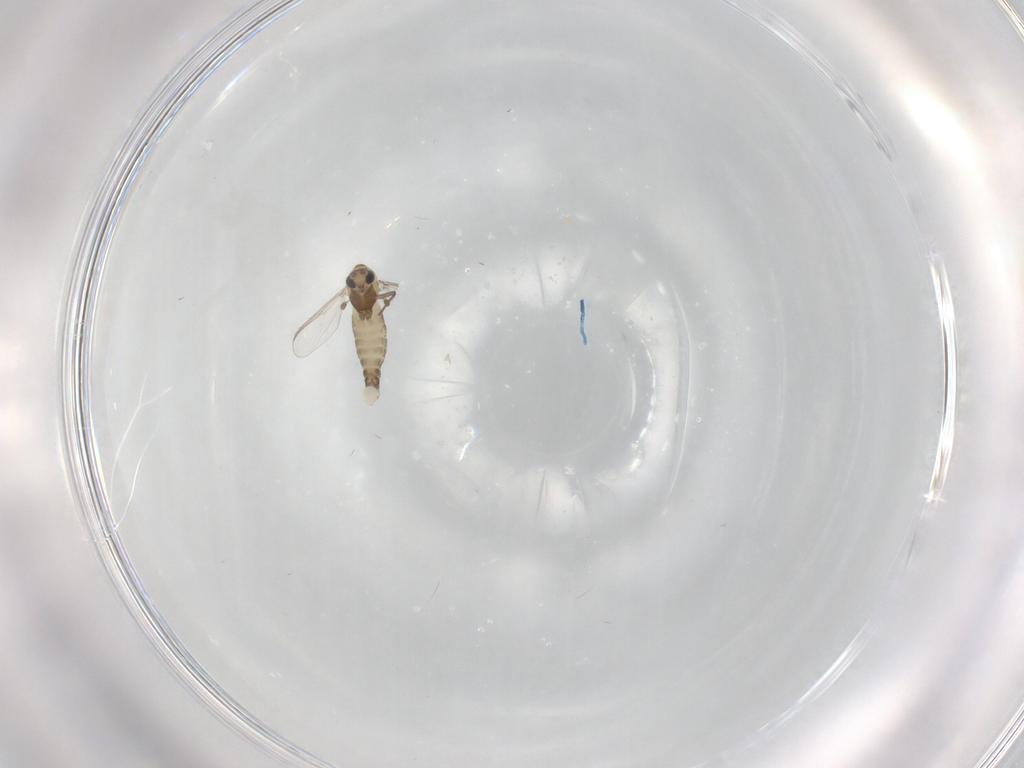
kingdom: Animalia
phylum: Arthropoda
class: Insecta
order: Diptera
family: Chironomidae
